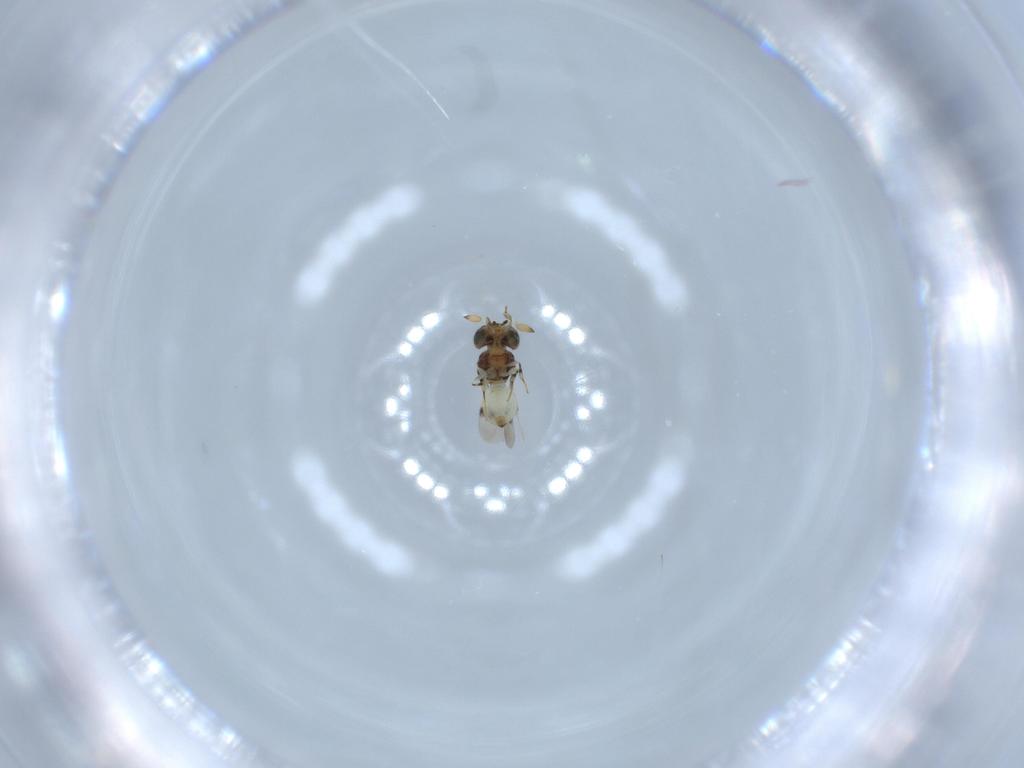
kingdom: Animalia
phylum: Arthropoda
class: Insecta
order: Hymenoptera
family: Scelionidae
